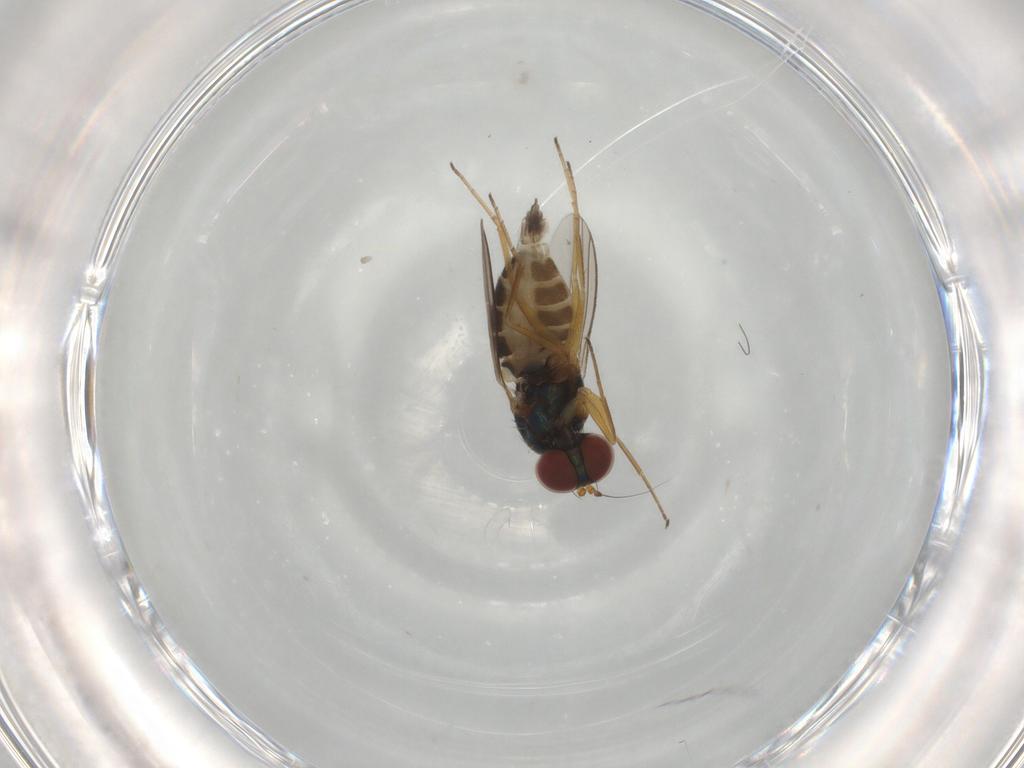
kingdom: Animalia
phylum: Arthropoda
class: Insecta
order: Diptera
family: Dolichopodidae
